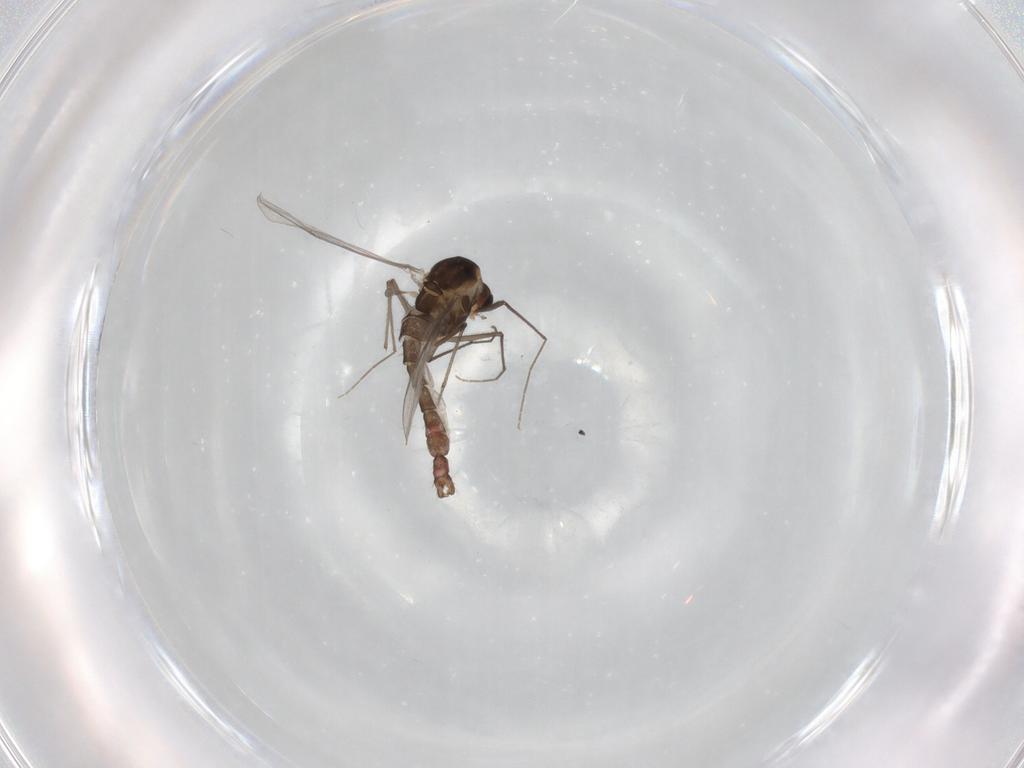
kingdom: Animalia
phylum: Arthropoda
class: Insecta
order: Diptera
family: Chironomidae
